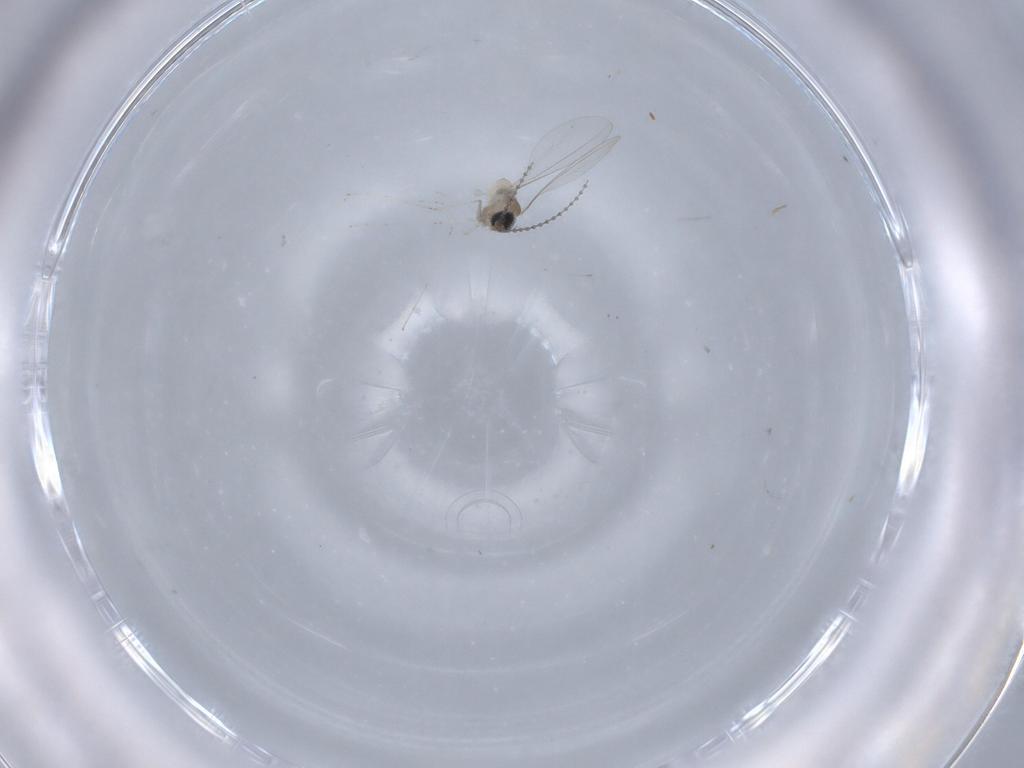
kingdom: Animalia
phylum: Arthropoda
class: Insecta
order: Diptera
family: Cecidomyiidae
